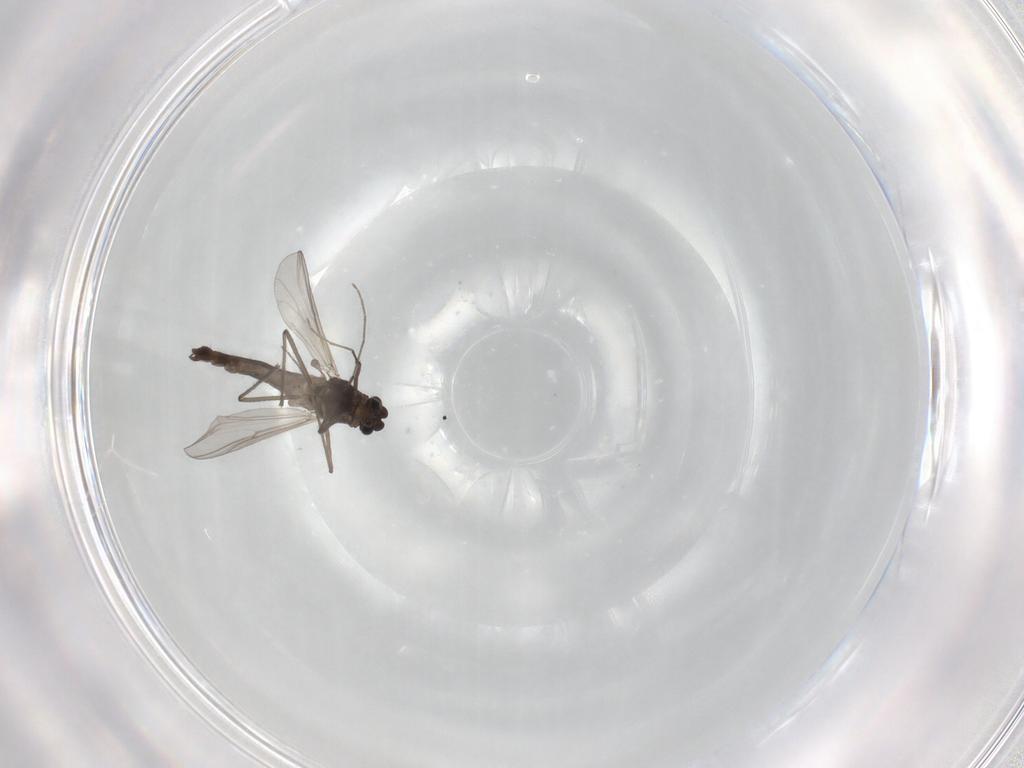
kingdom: Animalia
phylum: Arthropoda
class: Insecta
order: Diptera
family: Chironomidae
